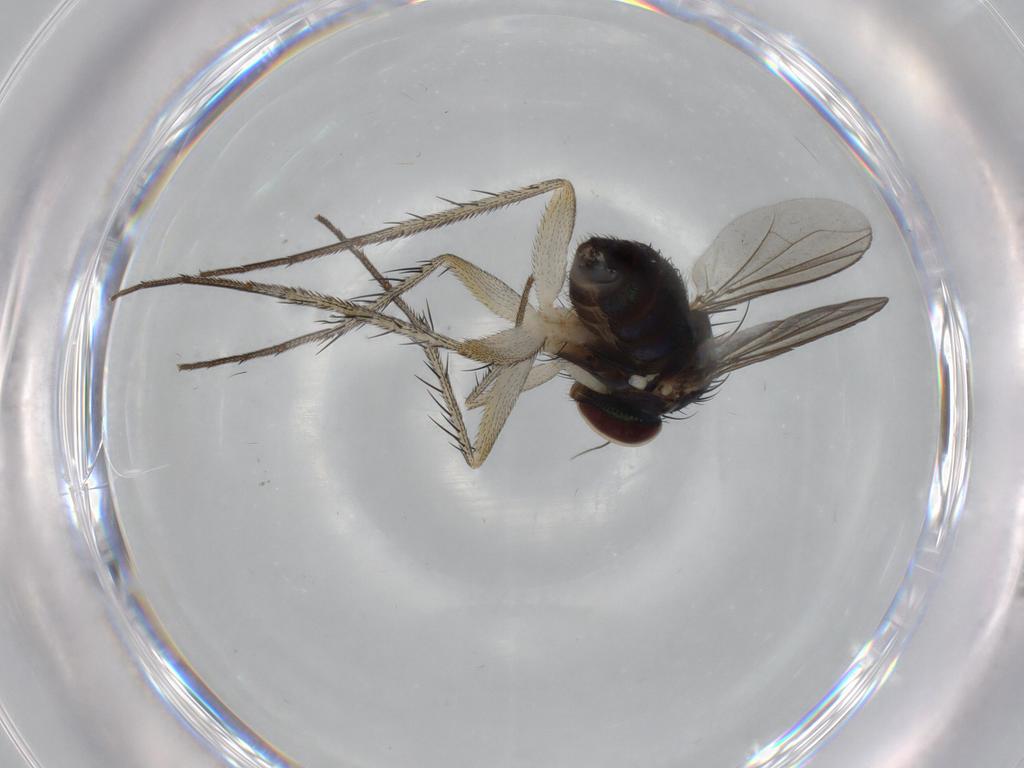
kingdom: Animalia
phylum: Arthropoda
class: Insecta
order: Diptera
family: Dolichopodidae
